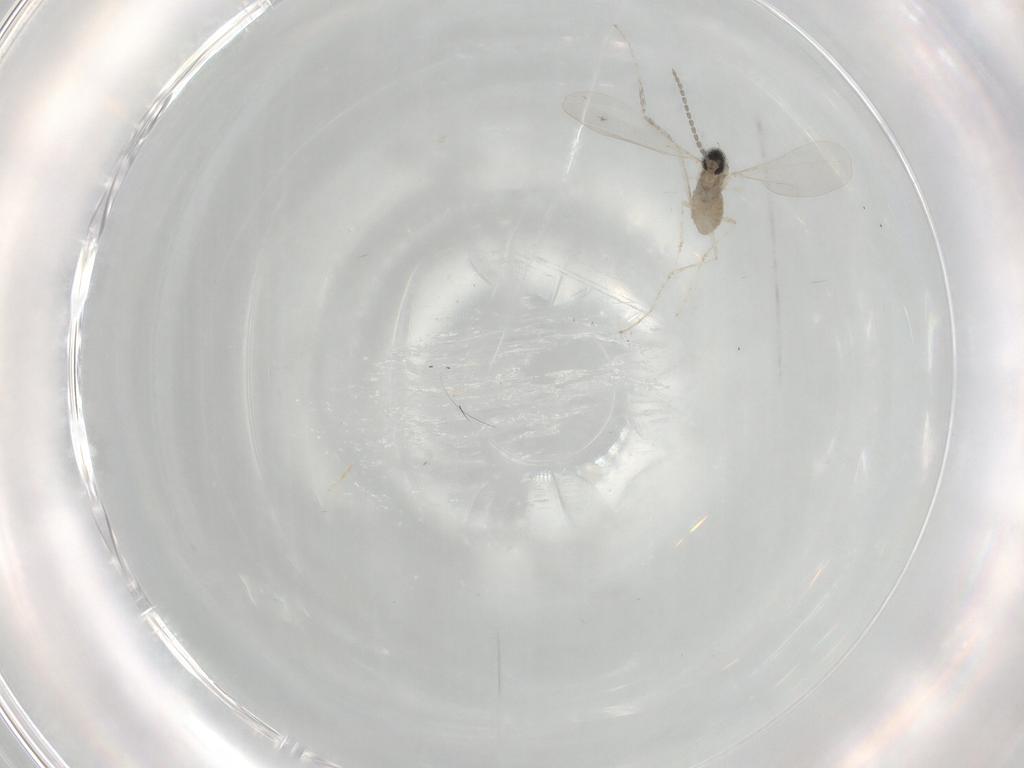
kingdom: Animalia
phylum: Arthropoda
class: Insecta
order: Diptera
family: Cecidomyiidae
